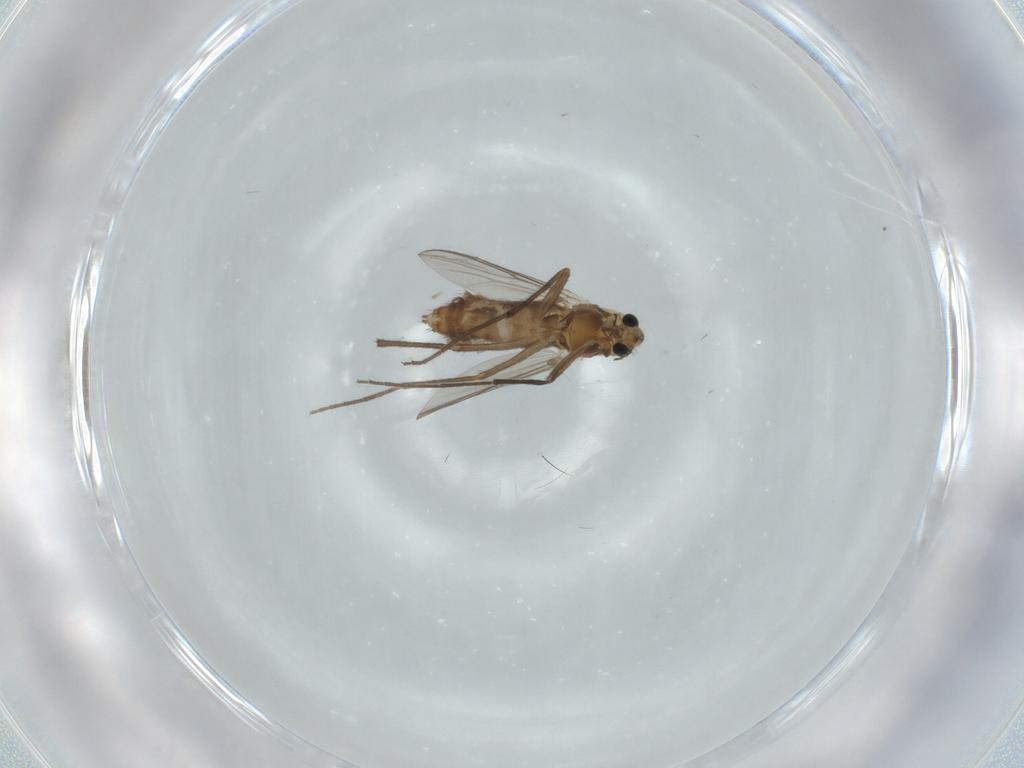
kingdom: Animalia
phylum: Arthropoda
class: Insecta
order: Diptera
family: Chironomidae
